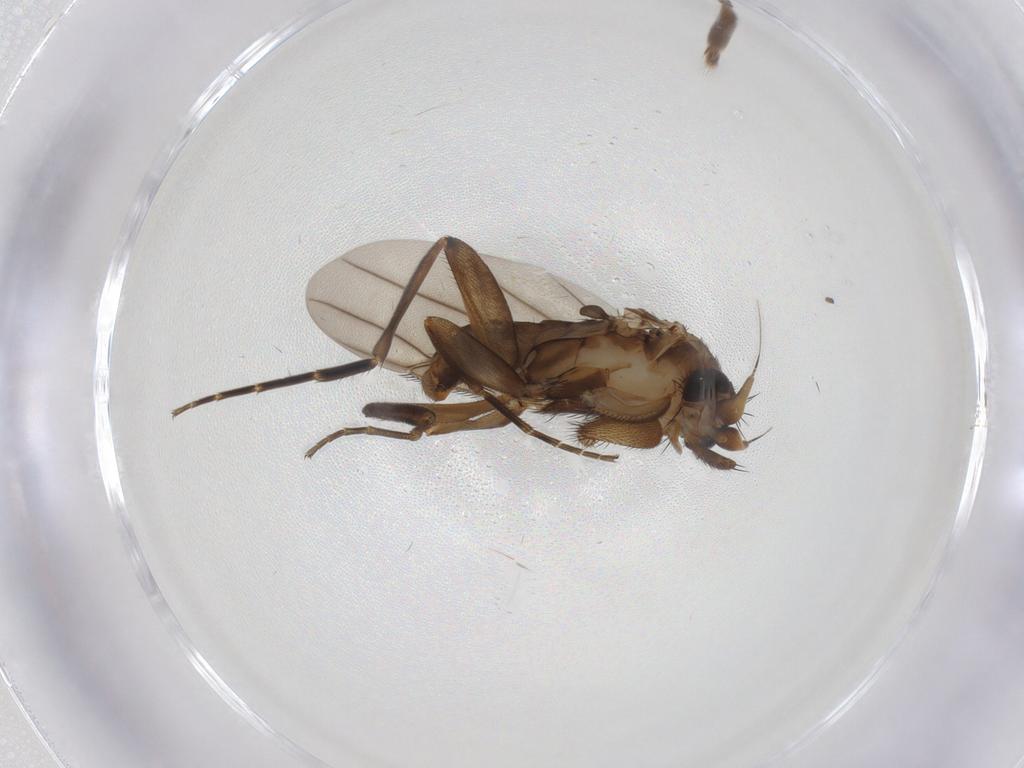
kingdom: Animalia
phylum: Arthropoda
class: Insecta
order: Diptera
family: Phoridae
